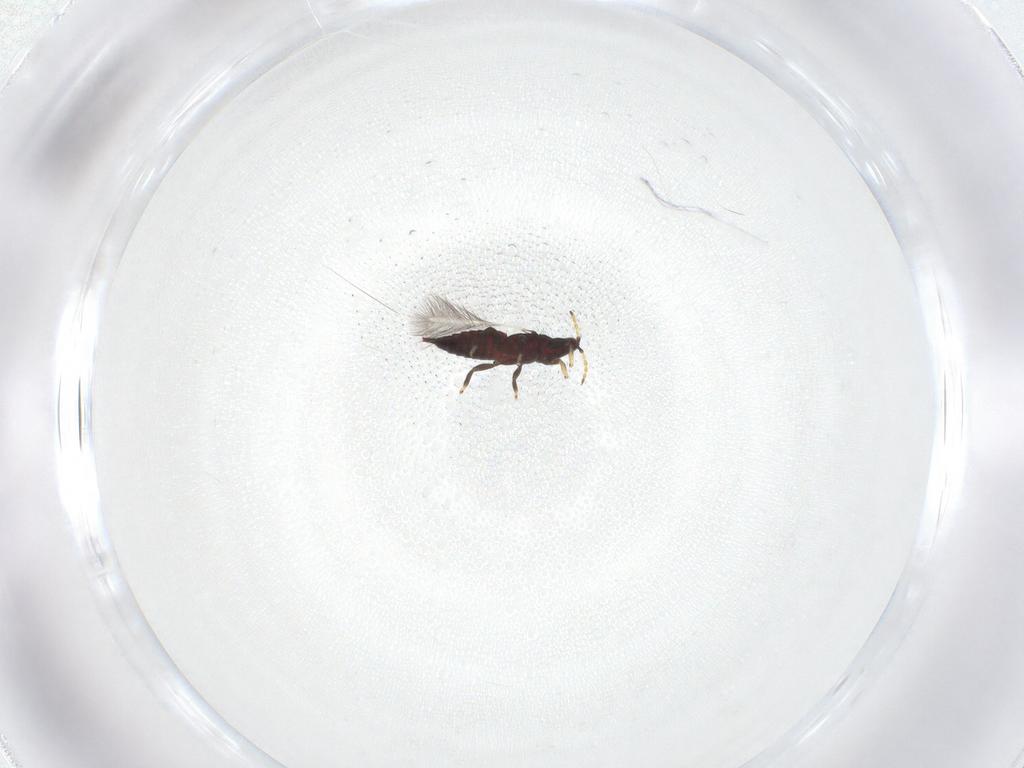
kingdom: Animalia
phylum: Arthropoda
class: Insecta
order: Thysanoptera
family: Phlaeothripidae
